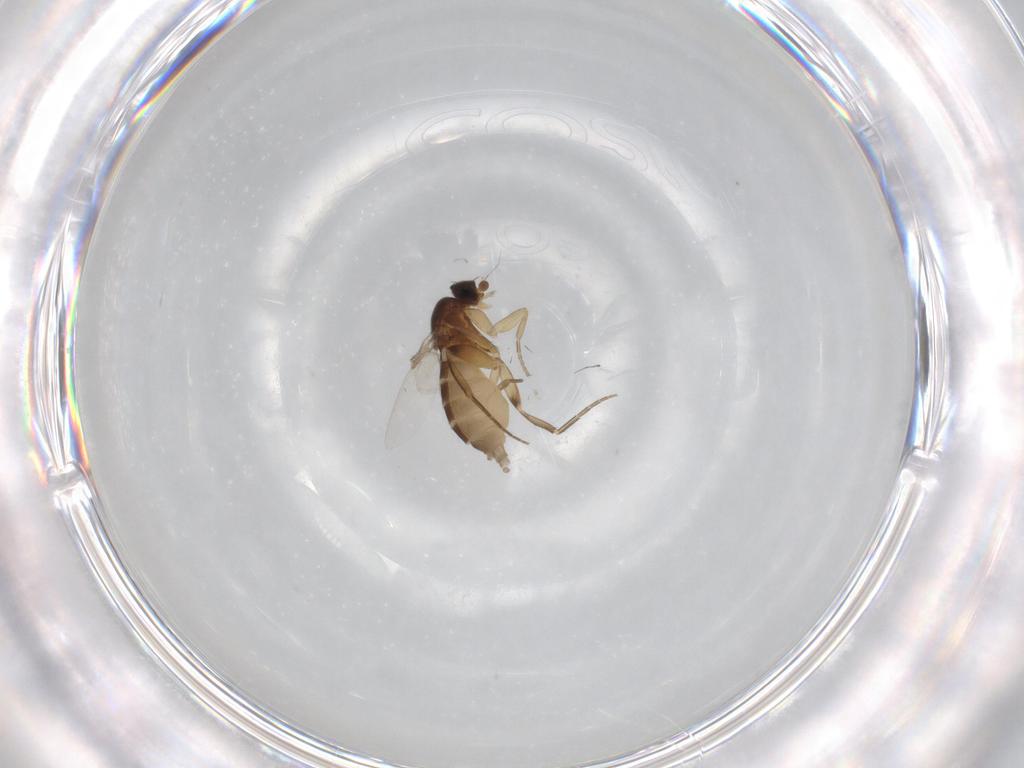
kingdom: Animalia
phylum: Arthropoda
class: Insecta
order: Diptera
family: Phoridae
